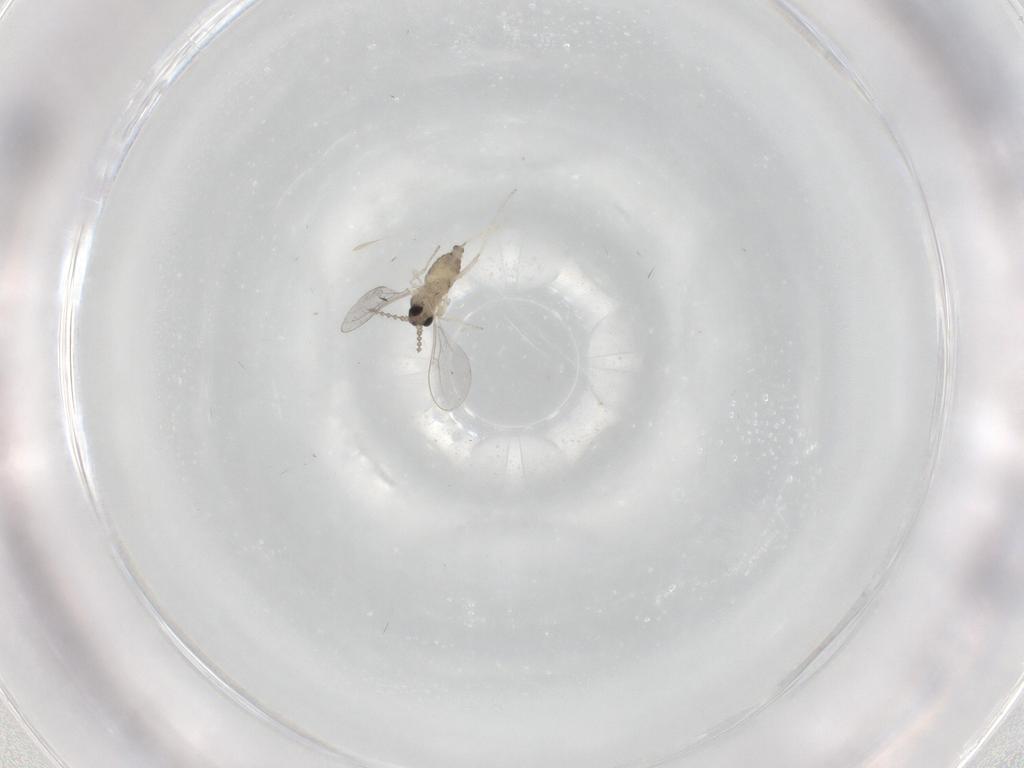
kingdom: Animalia
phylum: Arthropoda
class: Insecta
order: Diptera
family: Cecidomyiidae
